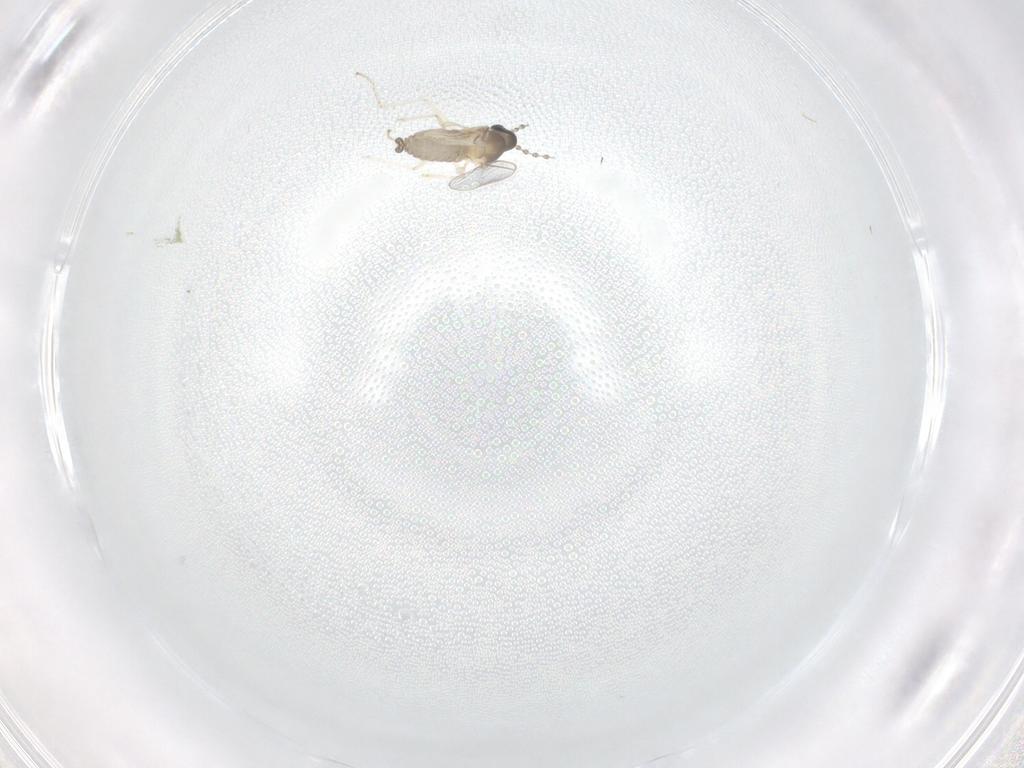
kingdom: Animalia
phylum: Arthropoda
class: Insecta
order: Diptera
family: Cecidomyiidae
